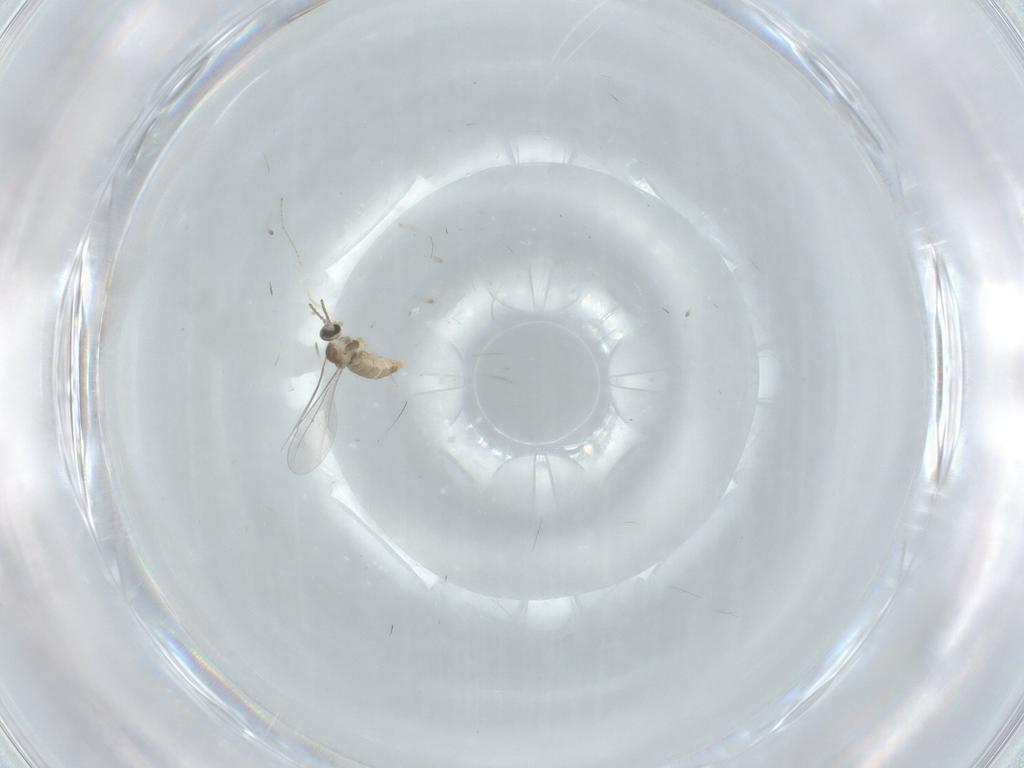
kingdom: Animalia
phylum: Arthropoda
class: Insecta
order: Diptera
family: Cecidomyiidae
